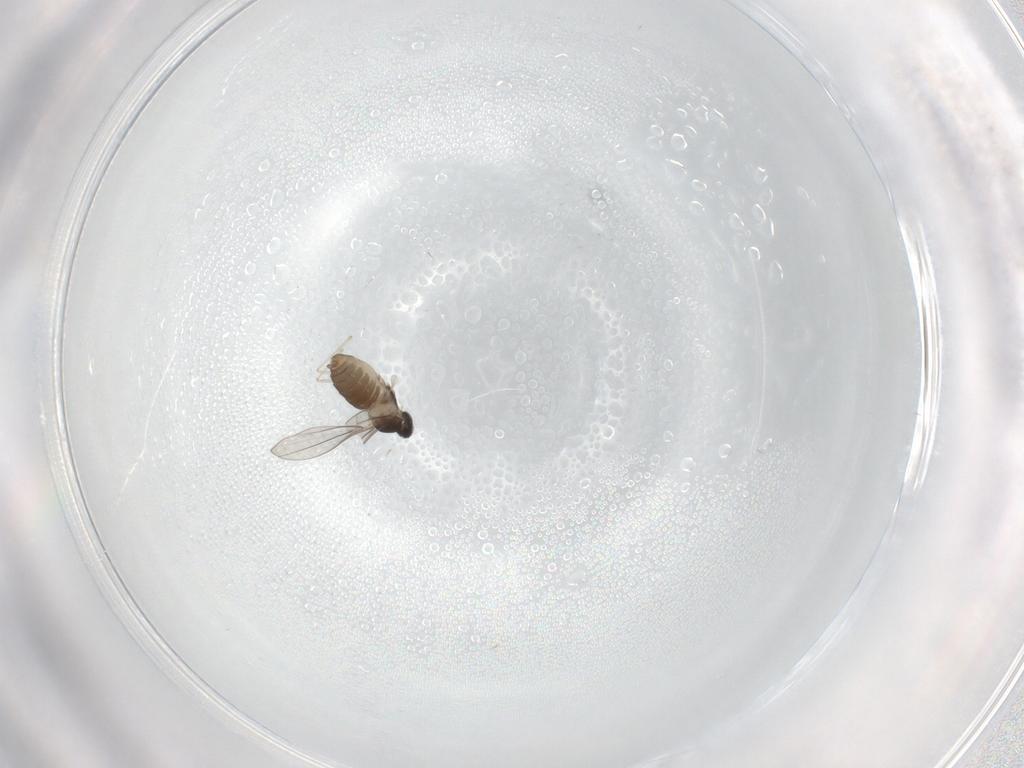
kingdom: Animalia
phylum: Arthropoda
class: Insecta
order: Diptera
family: Cecidomyiidae
